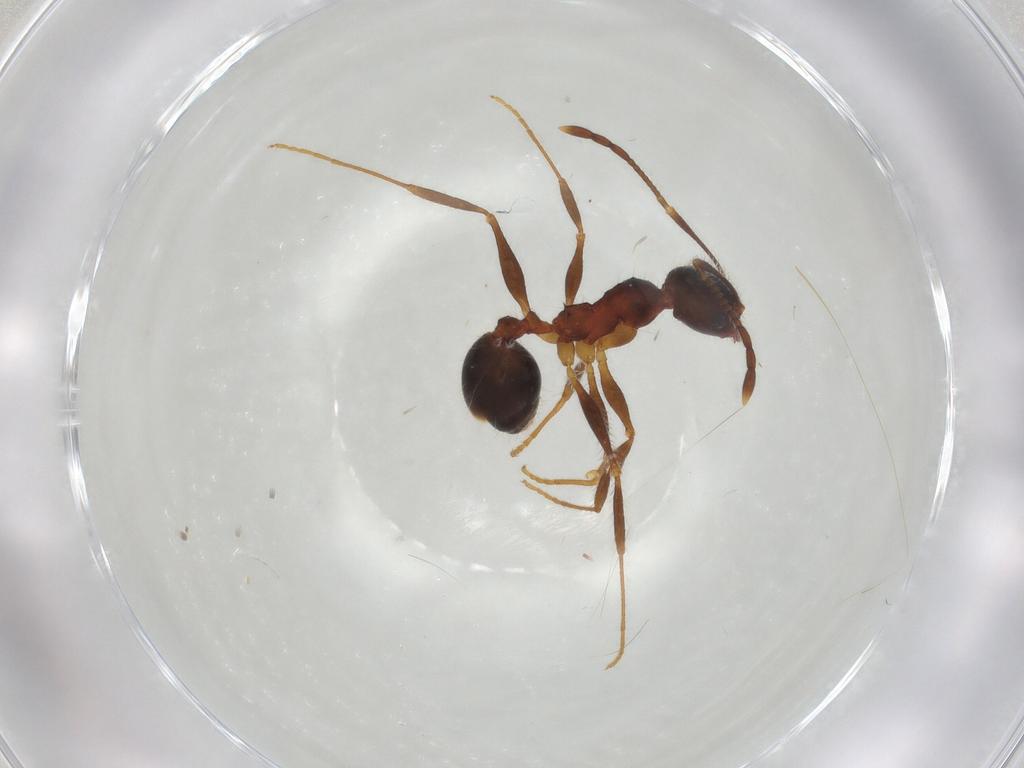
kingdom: Animalia
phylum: Arthropoda
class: Insecta
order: Hymenoptera
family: Formicidae
